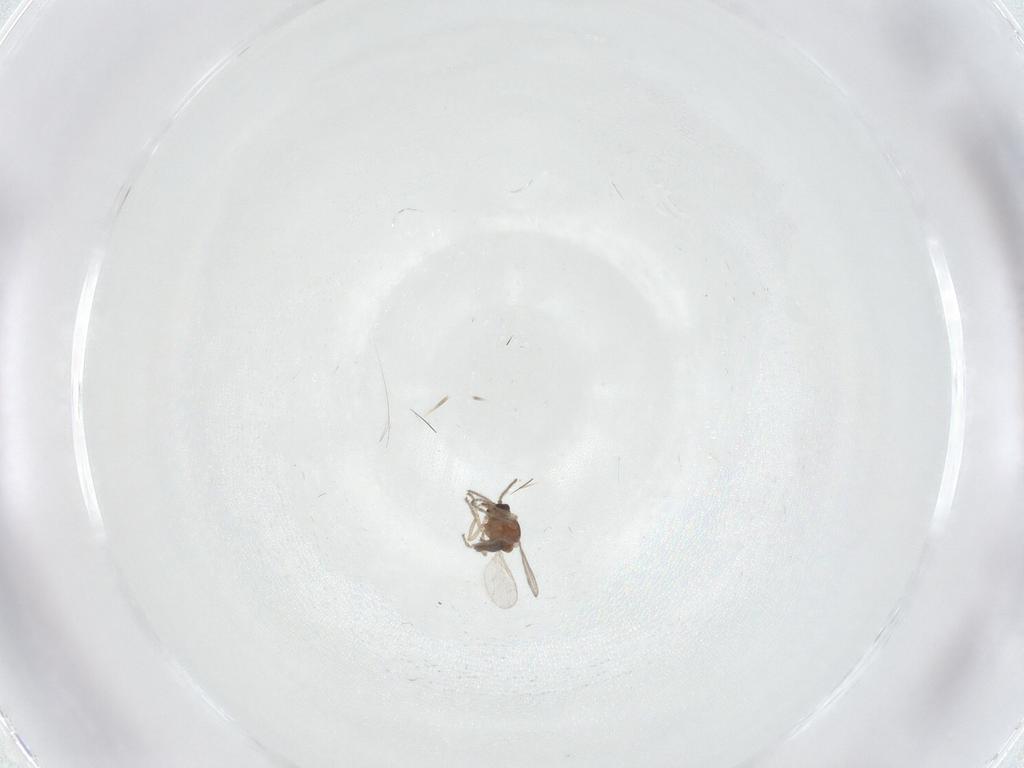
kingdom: Animalia
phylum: Arthropoda
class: Insecta
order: Diptera
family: Ceratopogonidae
